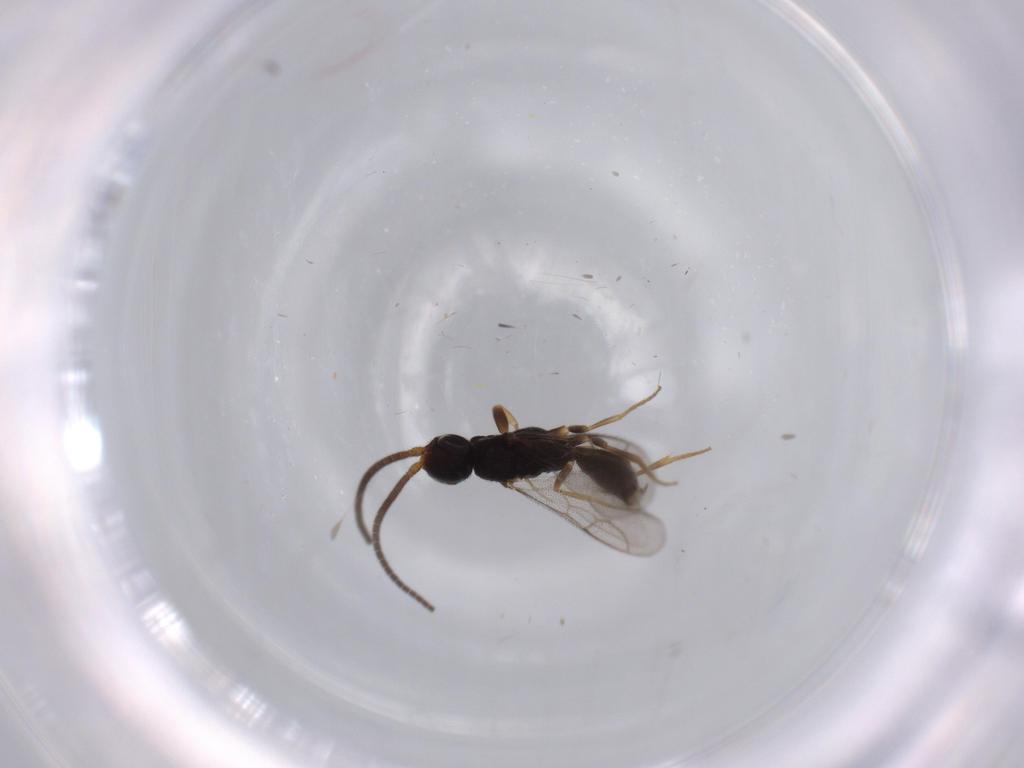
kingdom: Animalia
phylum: Arthropoda
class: Insecta
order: Hymenoptera
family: Sclerogibbidae
